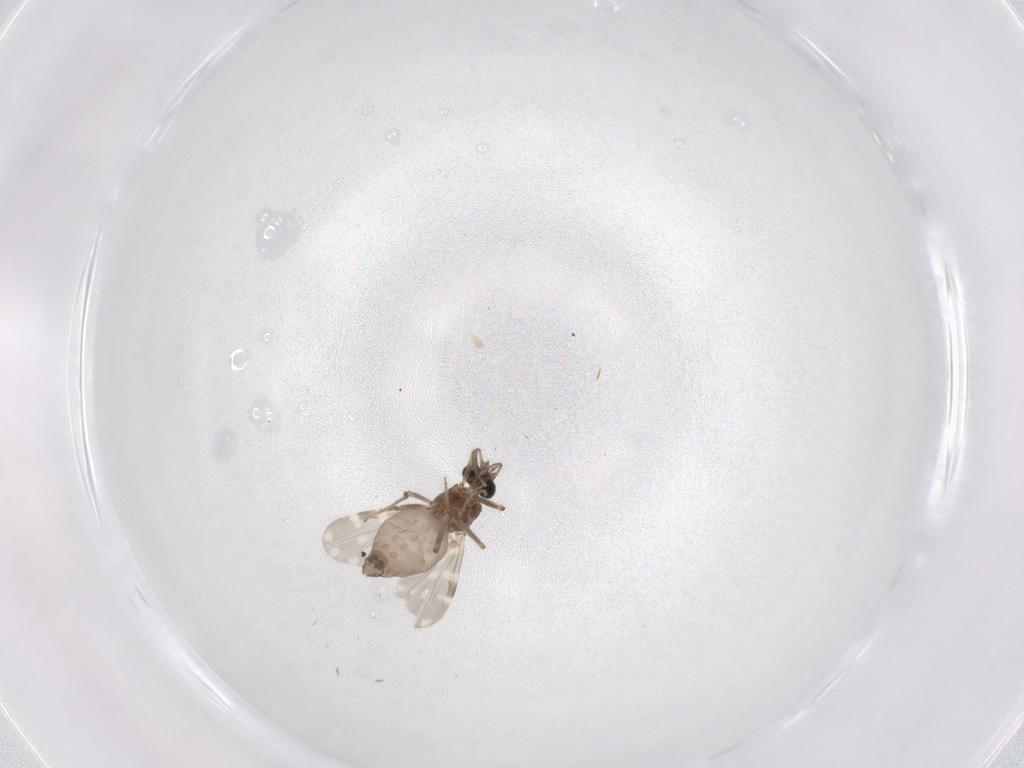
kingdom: Animalia
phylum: Arthropoda
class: Insecta
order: Diptera
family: Ceratopogonidae
